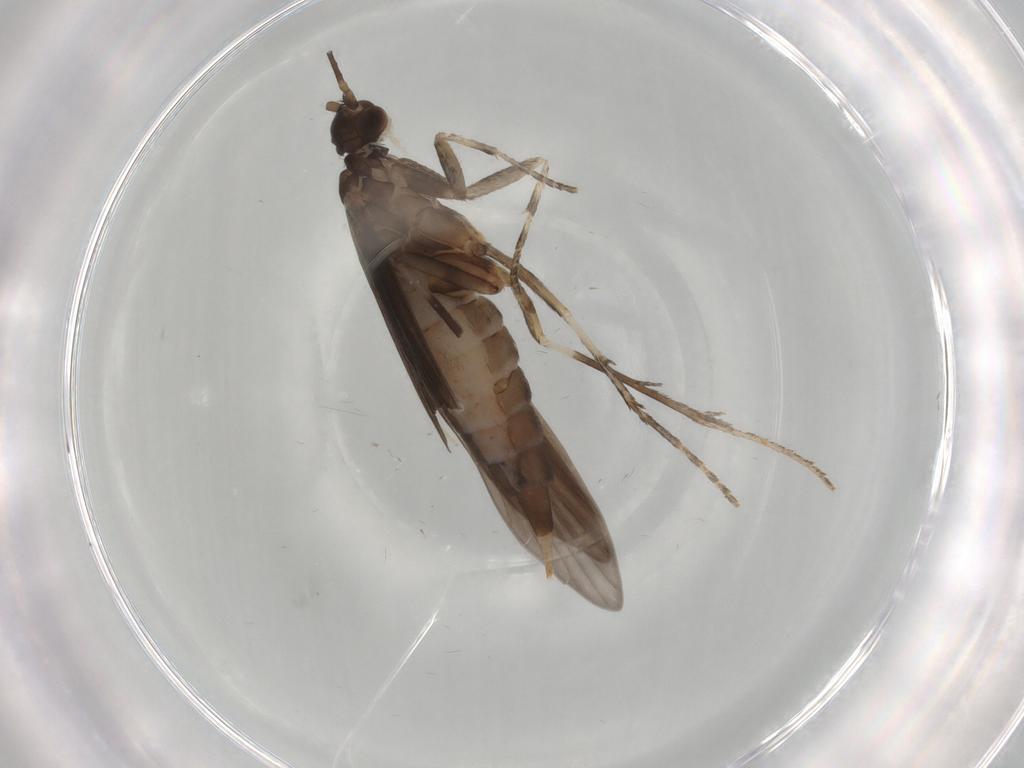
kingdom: Animalia
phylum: Arthropoda
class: Insecta
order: Trichoptera
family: Xiphocentronidae
